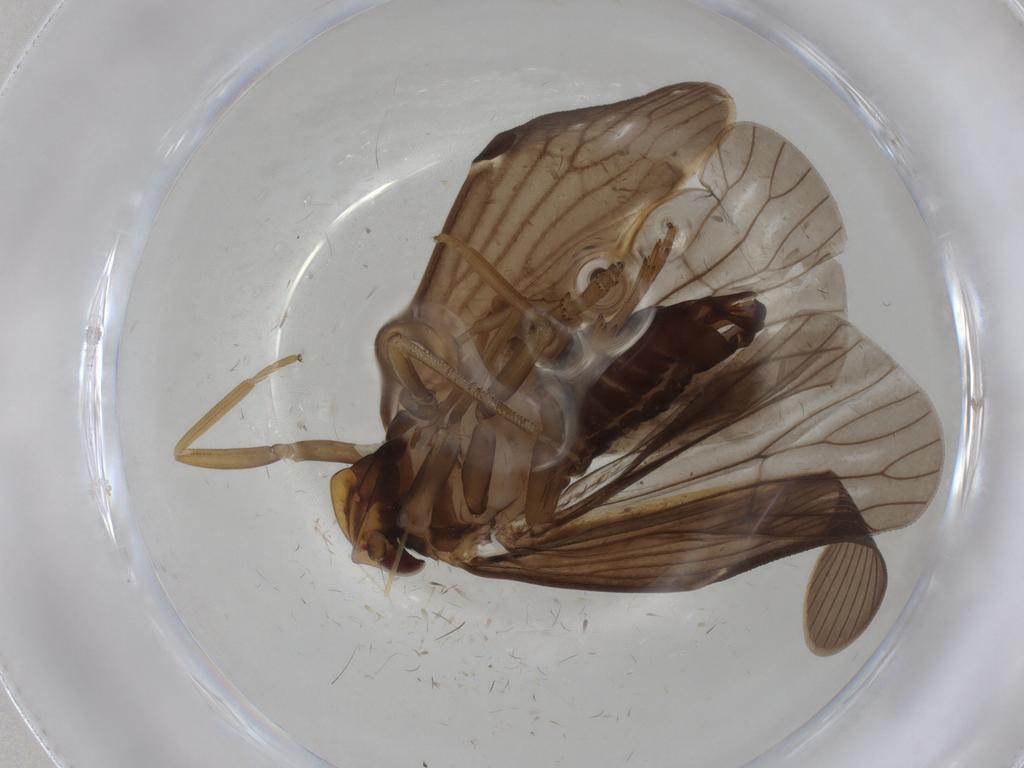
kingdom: Animalia
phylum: Arthropoda
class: Insecta
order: Hemiptera
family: Cixiidae
